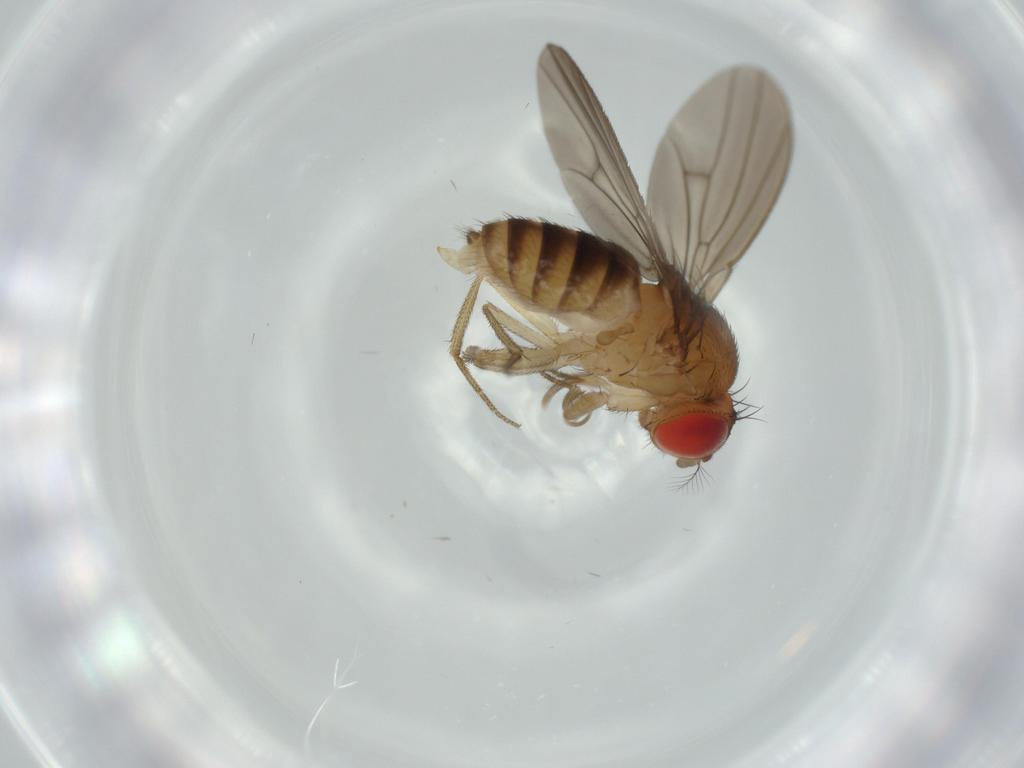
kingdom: Animalia
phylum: Arthropoda
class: Insecta
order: Diptera
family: Drosophilidae
